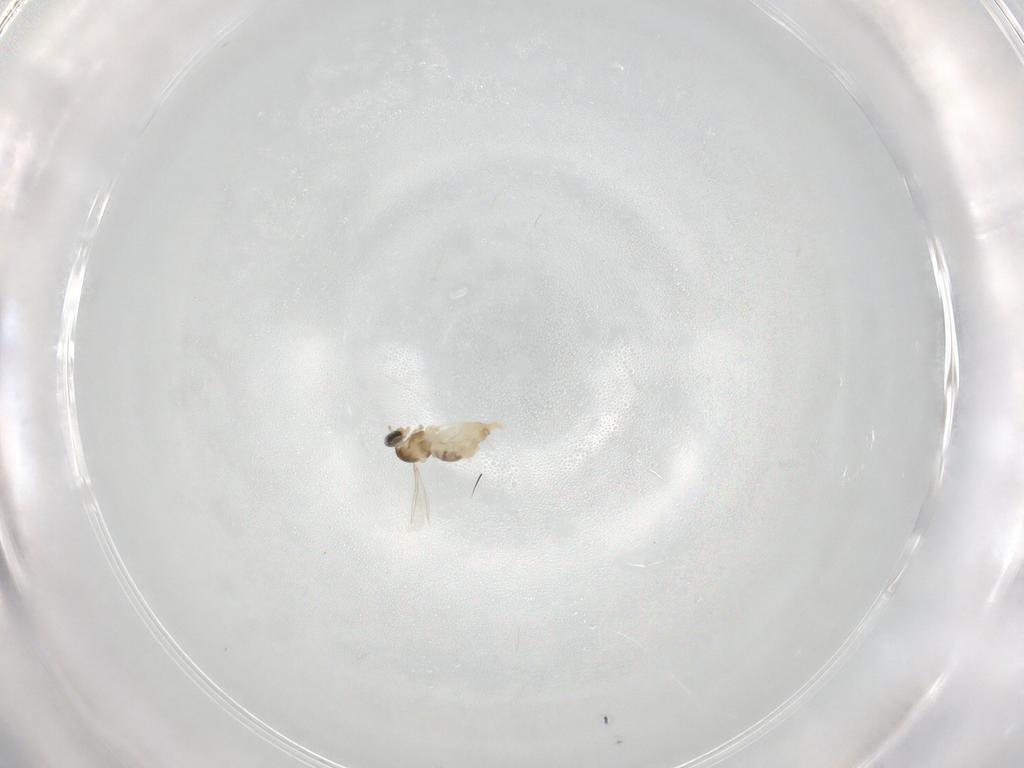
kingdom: Animalia
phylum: Arthropoda
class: Insecta
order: Diptera
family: Cecidomyiidae
